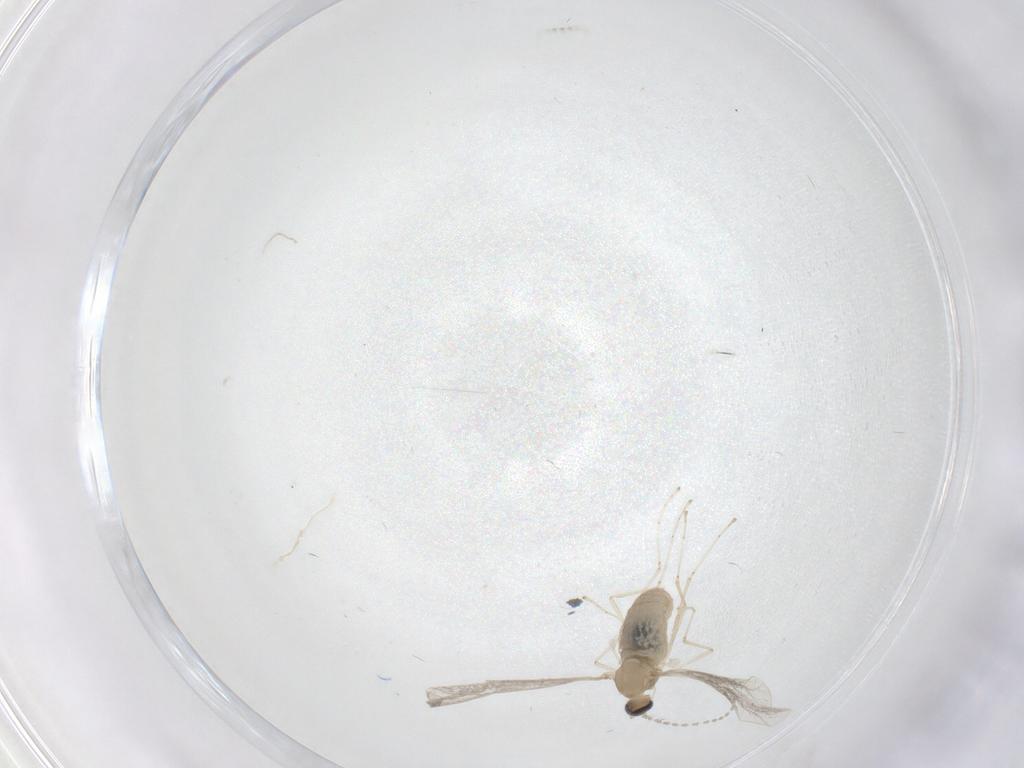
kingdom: Animalia
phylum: Arthropoda
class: Insecta
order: Diptera
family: Cecidomyiidae
